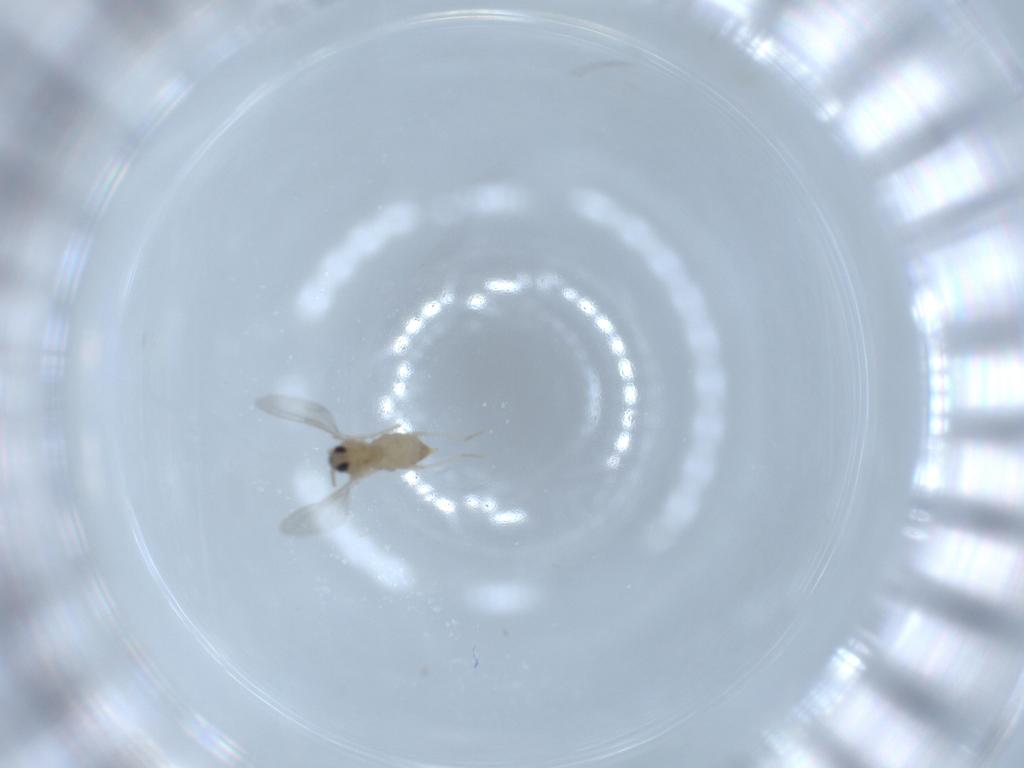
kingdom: Animalia
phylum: Arthropoda
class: Insecta
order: Diptera
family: Cecidomyiidae
